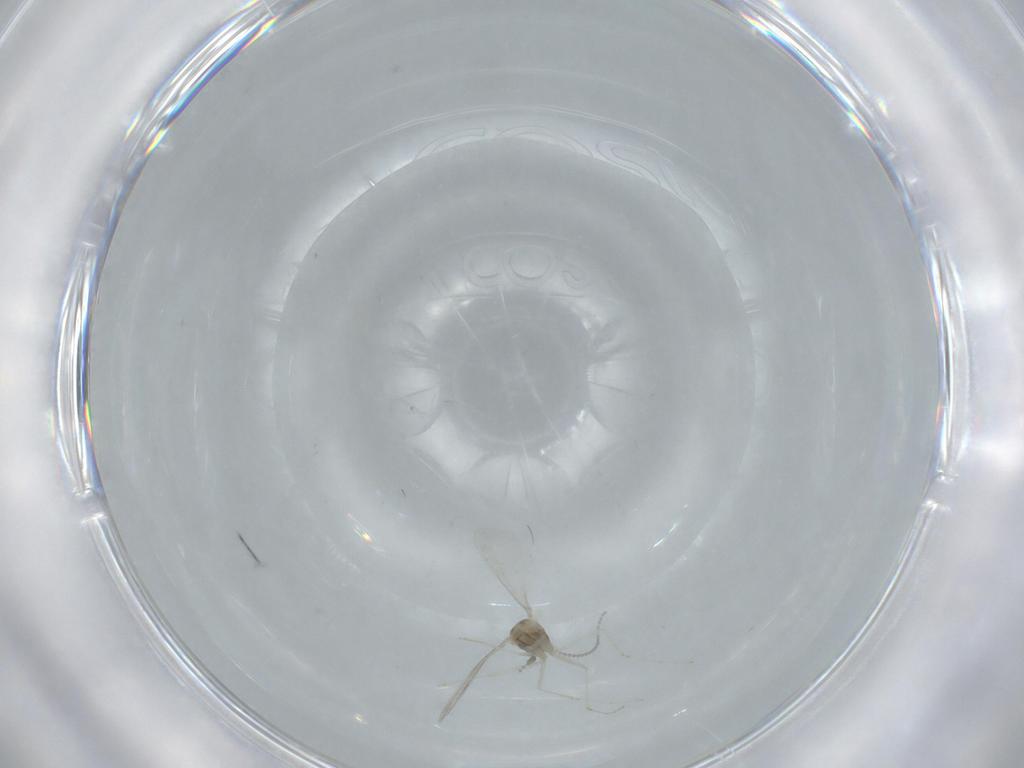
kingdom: Animalia
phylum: Arthropoda
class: Insecta
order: Diptera
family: Cecidomyiidae
